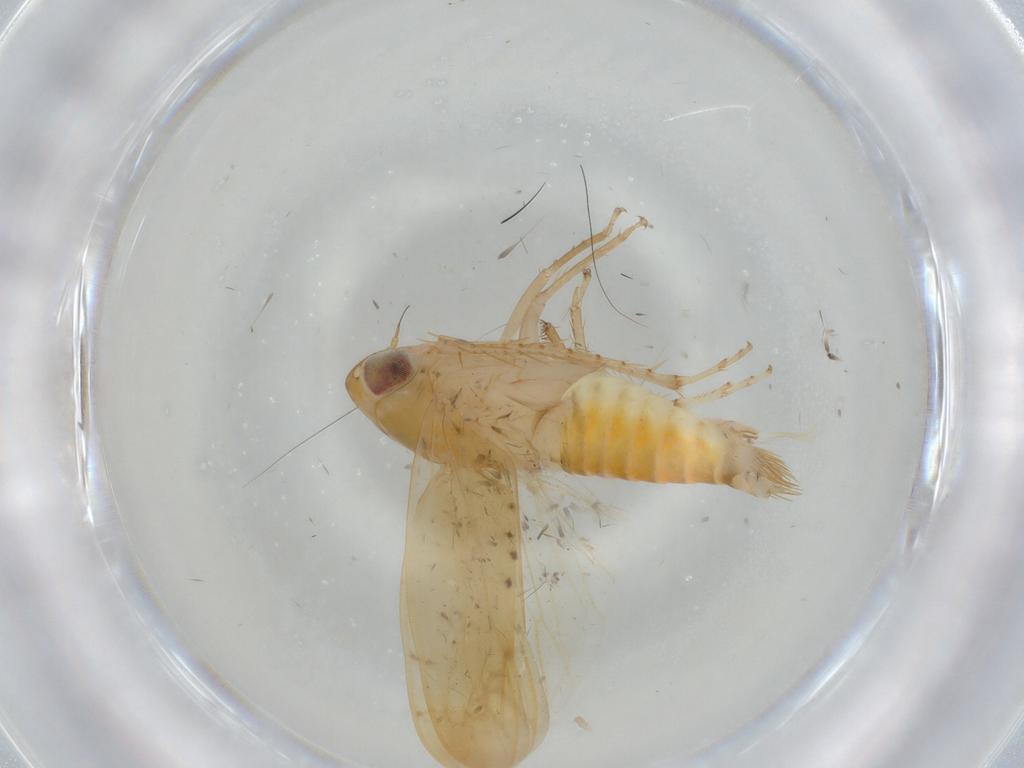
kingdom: Animalia
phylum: Arthropoda
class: Insecta
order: Hemiptera
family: Cicadellidae
